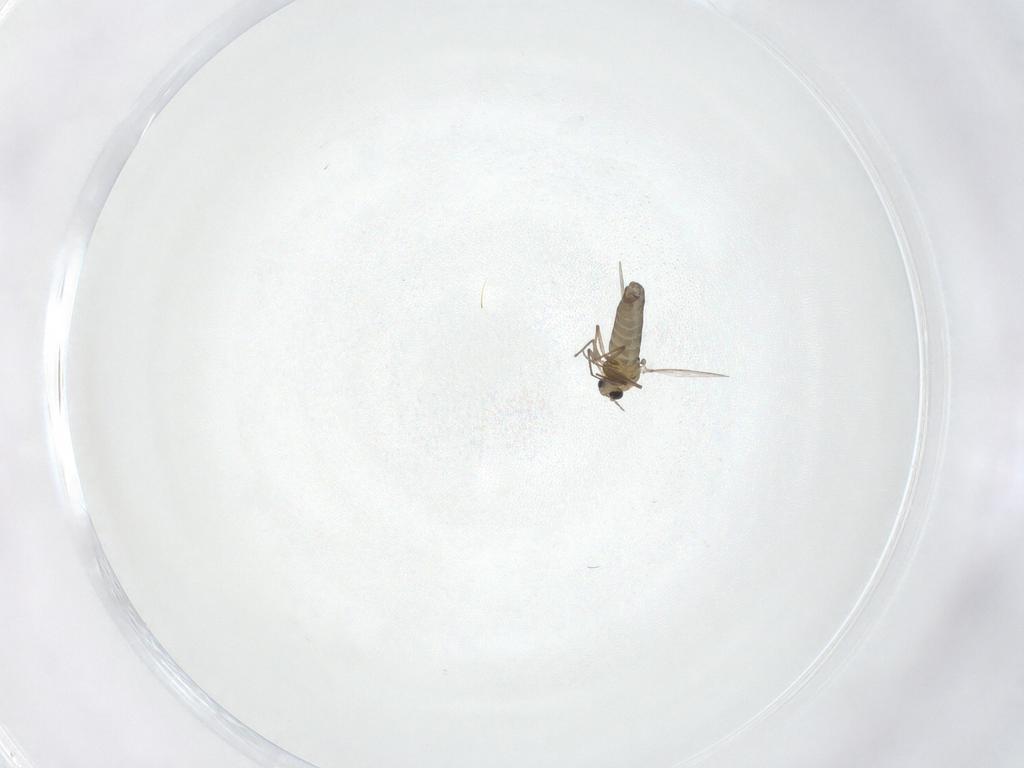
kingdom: Animalia
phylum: Arthropoda
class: Insecta
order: Diptera
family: Chironomidae
